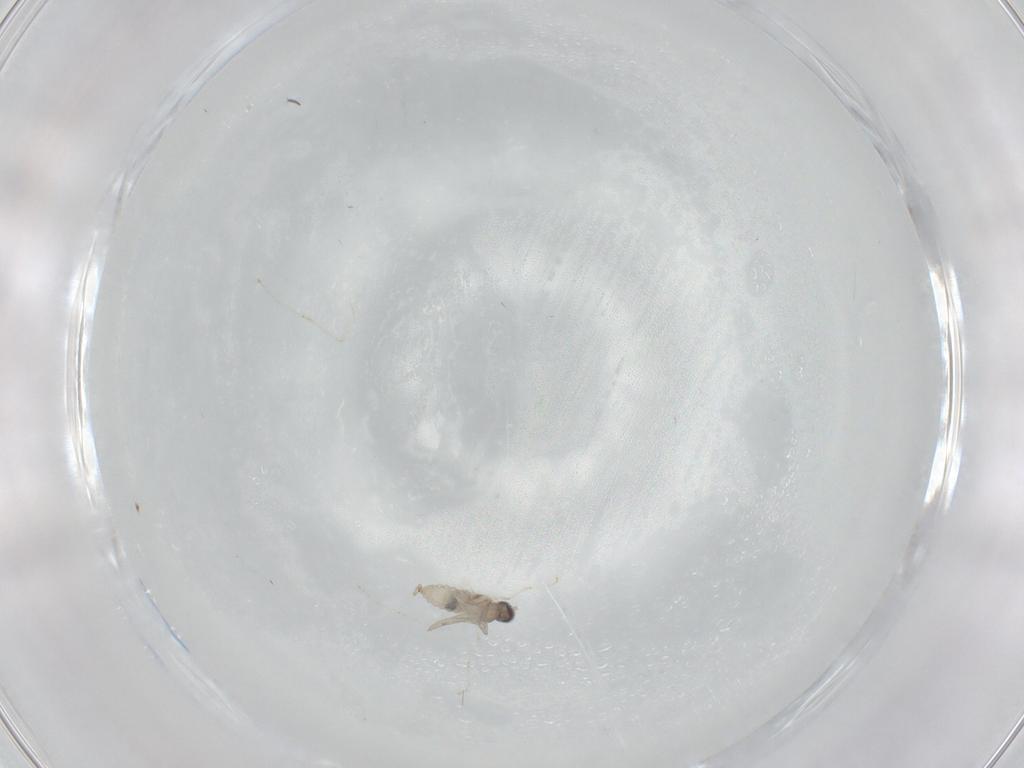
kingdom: Animalia
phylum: Arthropoda
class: Insecta
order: Diptera
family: Cecidomyiidae
